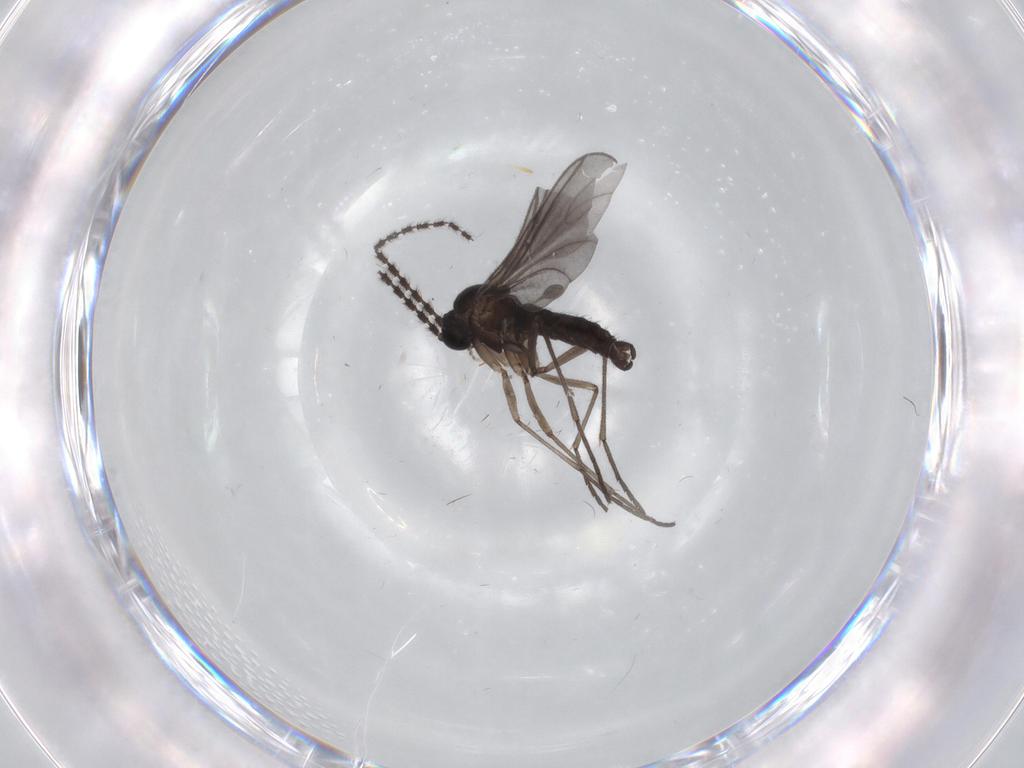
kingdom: Animalia
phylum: Arthropoda
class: Insecta
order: Diptera
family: Sciaridae
